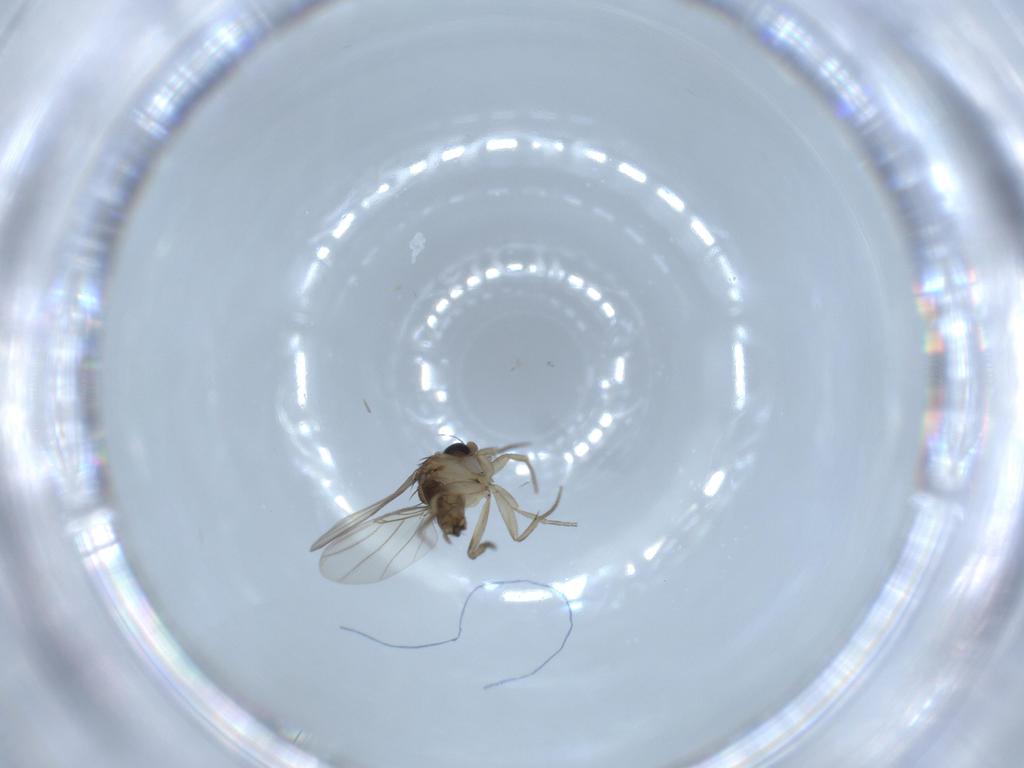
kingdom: Animalia
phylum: Arthropoda
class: Insecta
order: Diptera
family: Phoridae
